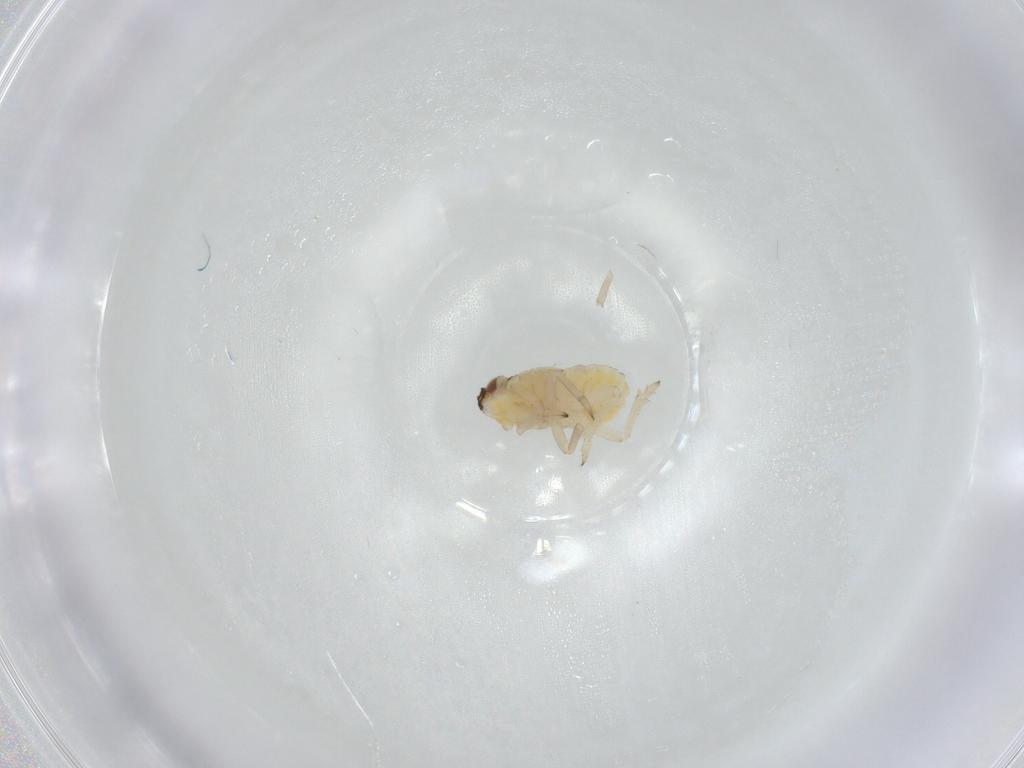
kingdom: Animalia
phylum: Arthropoda
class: Insecta
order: Hemiptera
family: Delphacidae
